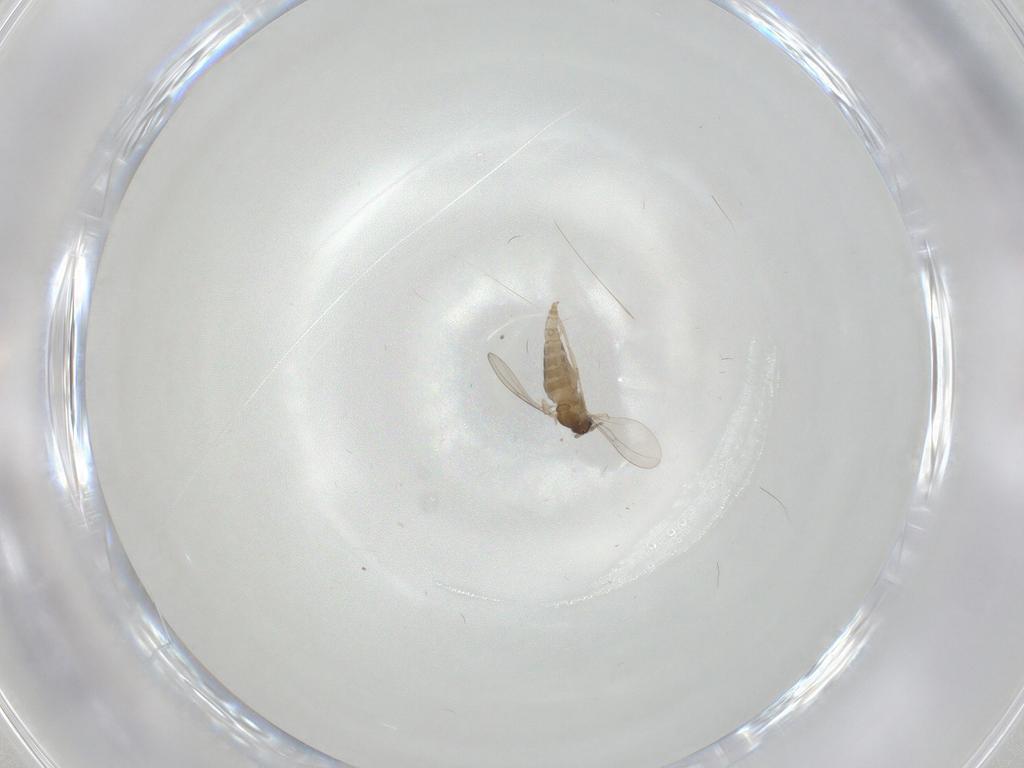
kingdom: Animalia
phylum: Arthropoda
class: Insecta
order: Diptera
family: Cecidomyiidae
